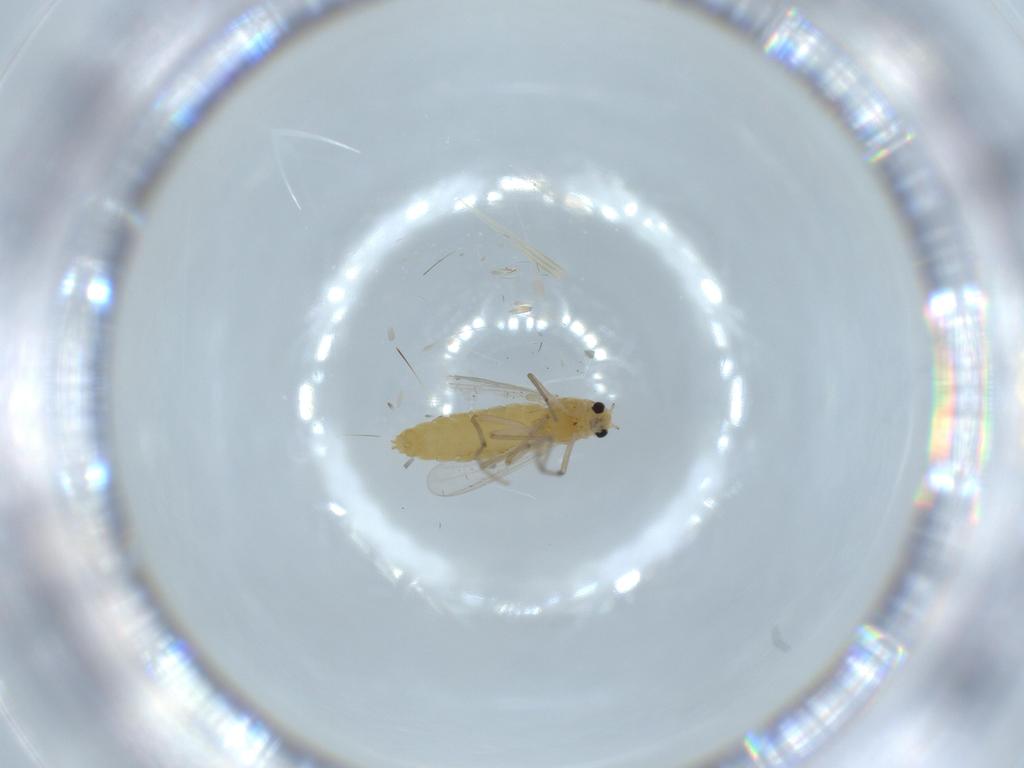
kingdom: Animalia
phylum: Arthropoda
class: Insecta
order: Diptera
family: Chironomidae
